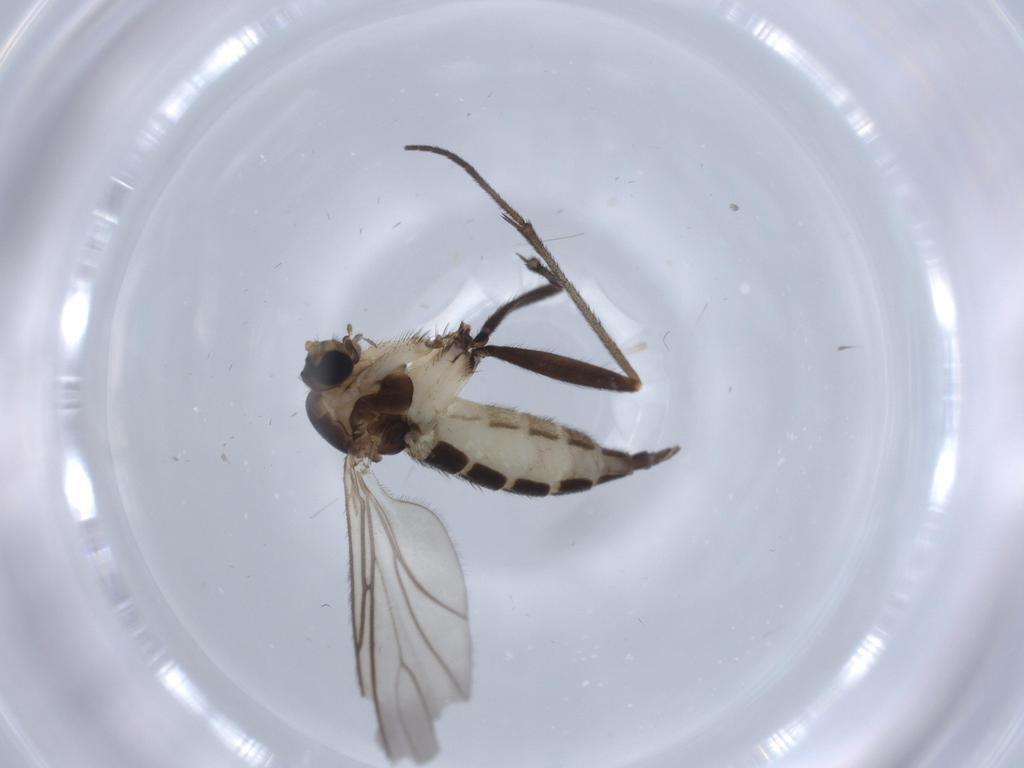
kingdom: Animalia
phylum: Arthropoda
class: Insecta
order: Diptera
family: Sciaridae
